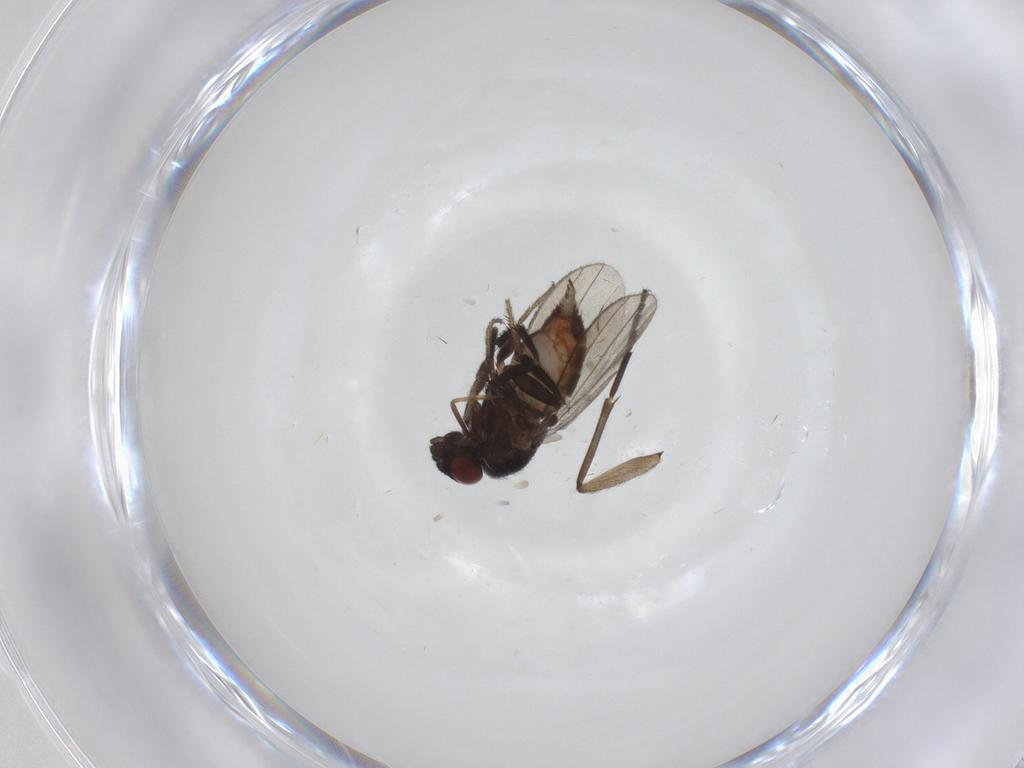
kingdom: Animalia
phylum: Arthropoda
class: Insecta
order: Diptera
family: Milichiidae
